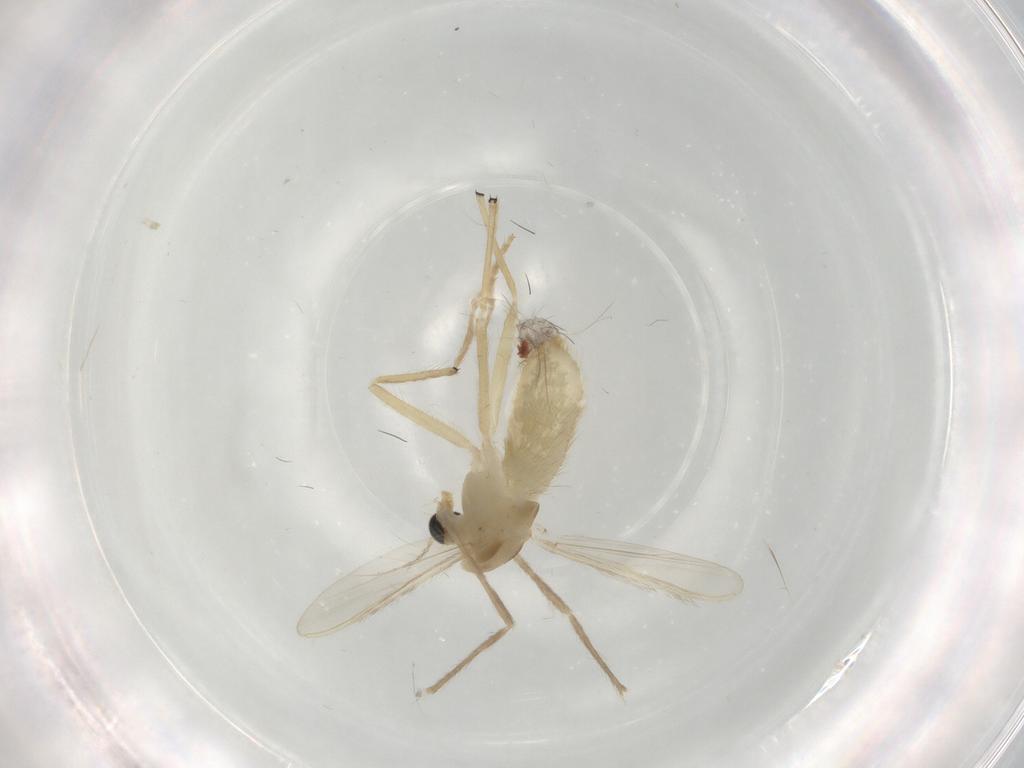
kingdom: Animalia
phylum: Arthropoda
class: Insecta
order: Diptera
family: Chironomidae
